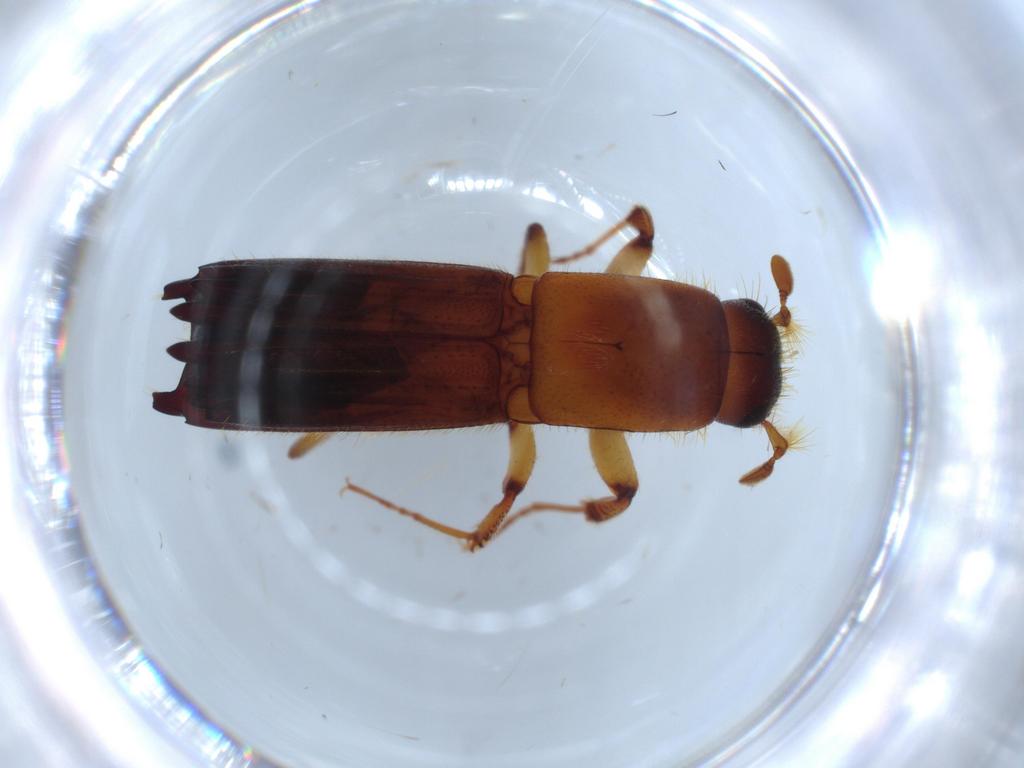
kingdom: Animalia
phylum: Arthropoda
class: Insecta
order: Coleoptera
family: Curculionidae
